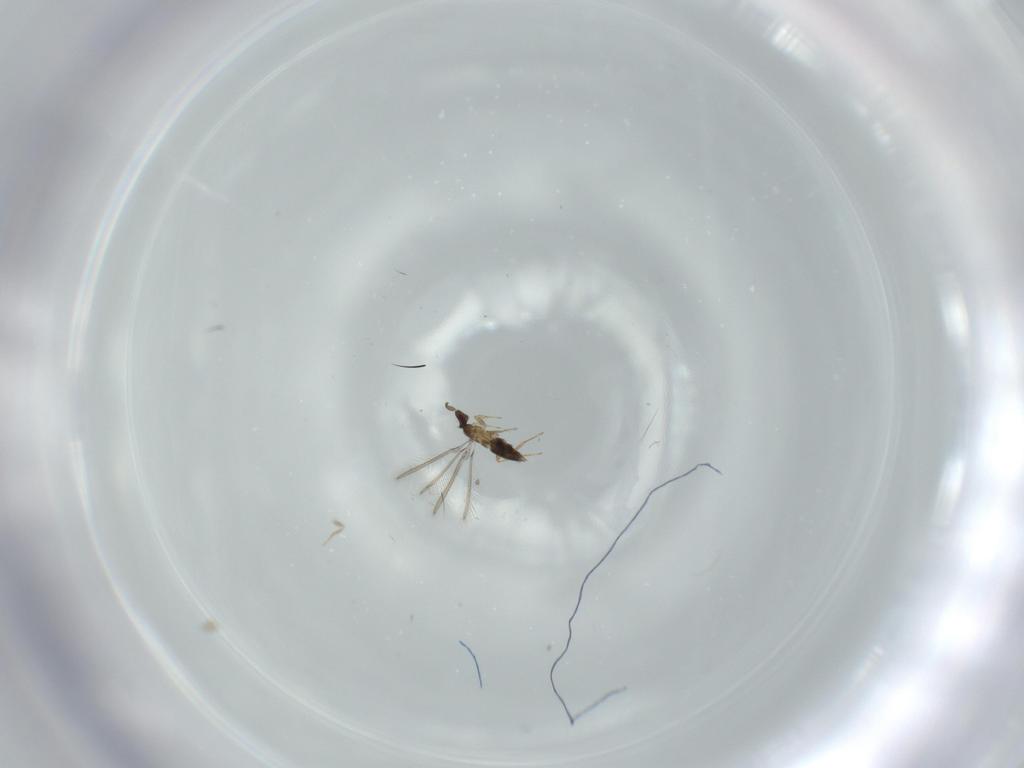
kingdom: Animalia
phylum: Arthropoda
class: Insecta
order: Hymenoptera
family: Mymaridae
